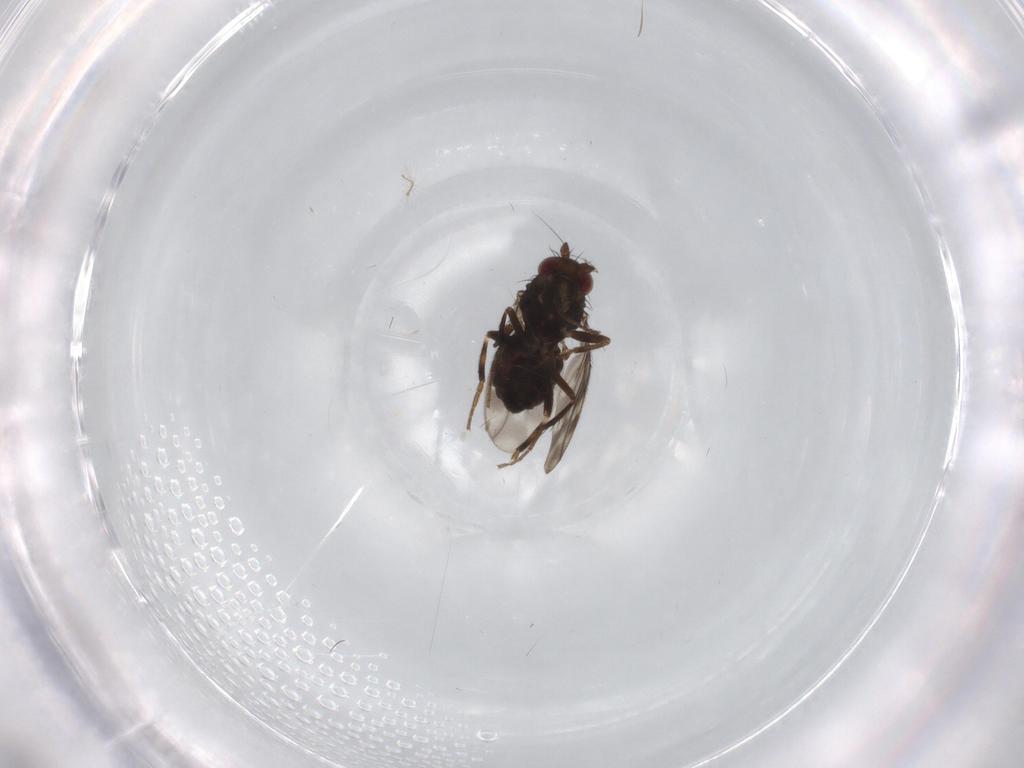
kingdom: Animalia
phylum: Arthropoda
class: Insecta
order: Diptera
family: Sphaeroceridae
